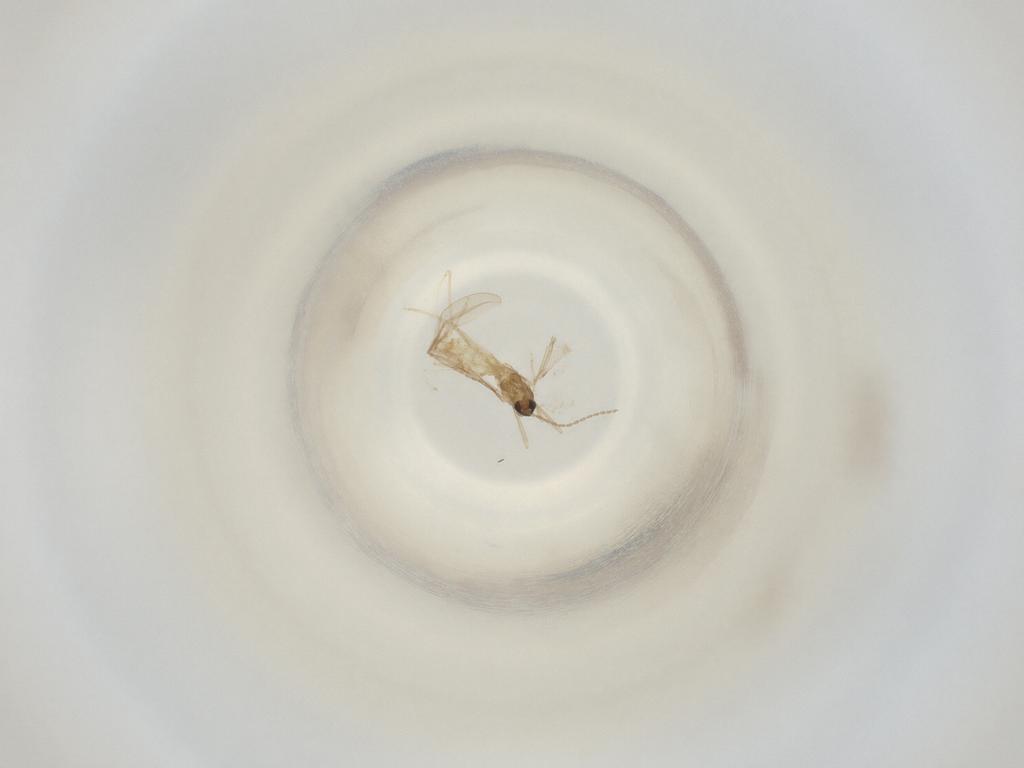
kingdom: Animalia
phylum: Arthropoda
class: Insecta
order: Diptera
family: Cecidomyiidae
